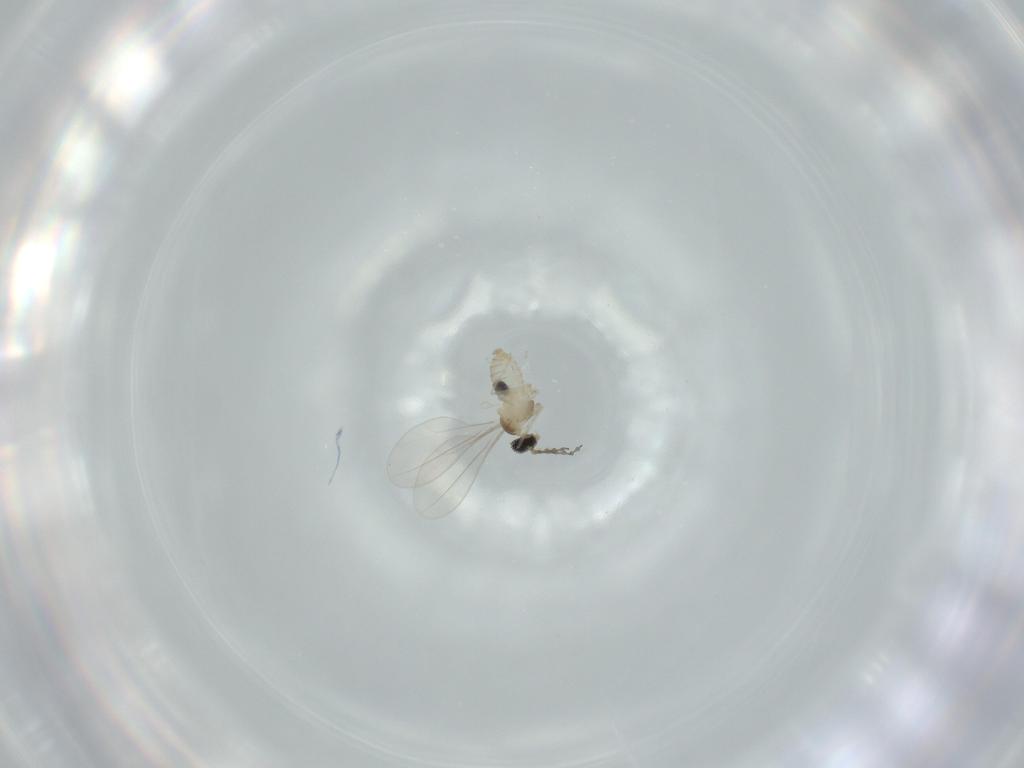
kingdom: Animalia
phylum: Arthropoda
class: Insecta
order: Diptera
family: Cecidomyiidae
